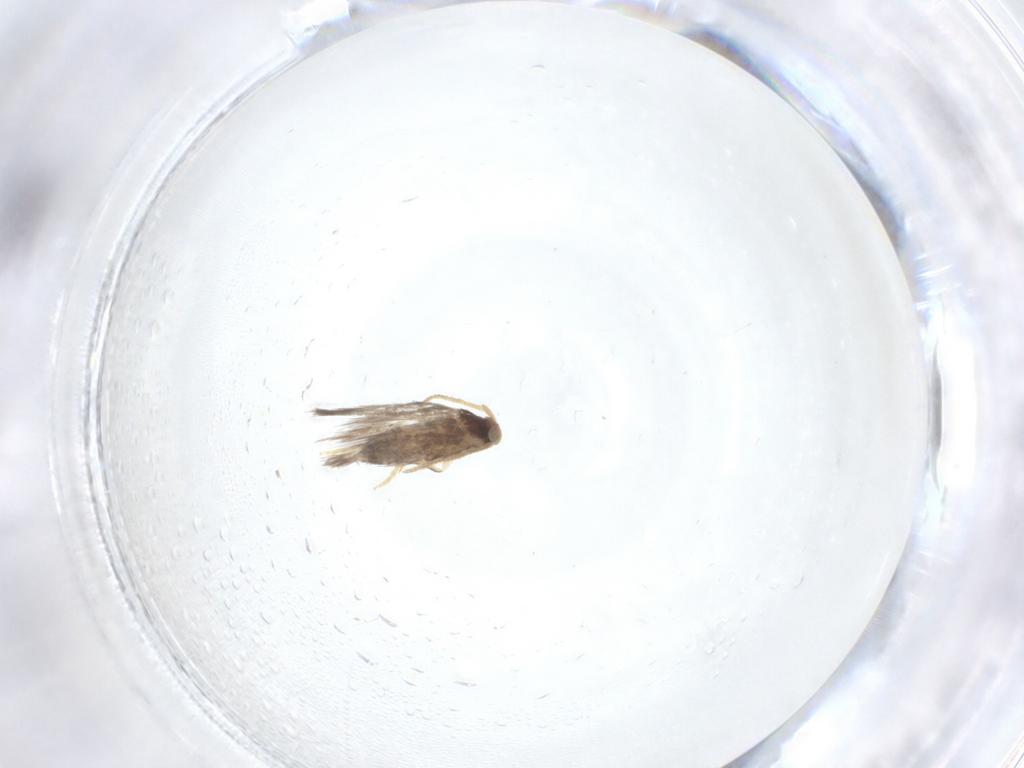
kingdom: Animalia
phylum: Arthropoda
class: Insecta
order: Lepidoptera
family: Nepticulidae
